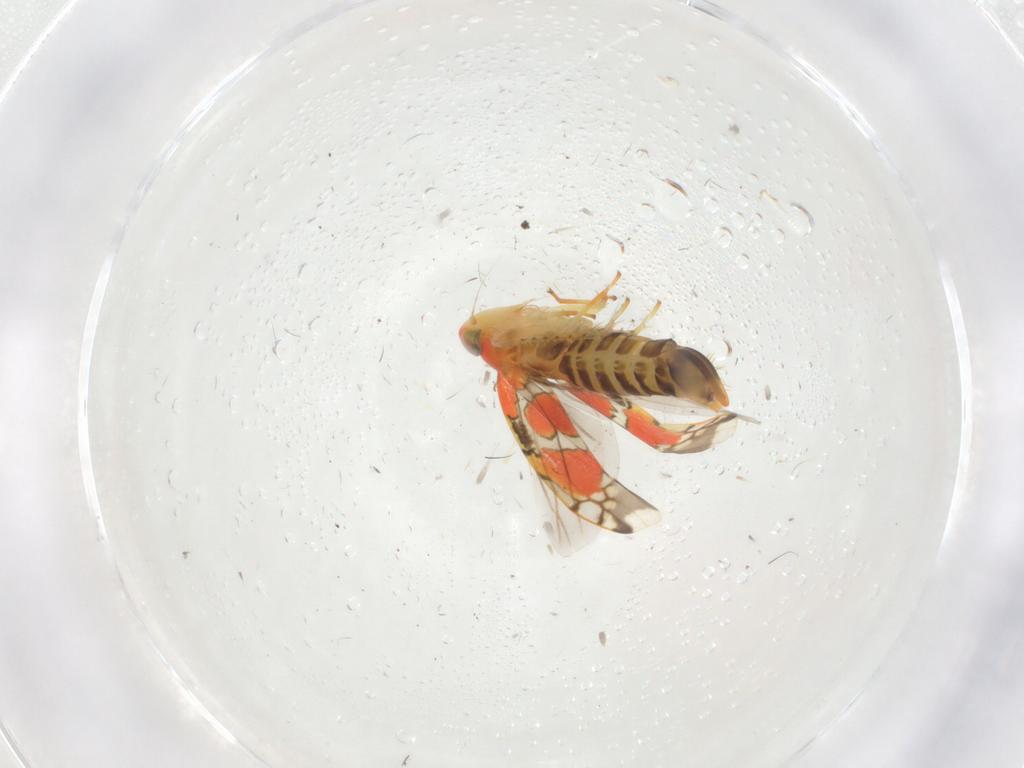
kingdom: Animalia
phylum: Arthropoda
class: Insecta
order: Hemiptera
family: Cicadellidae
